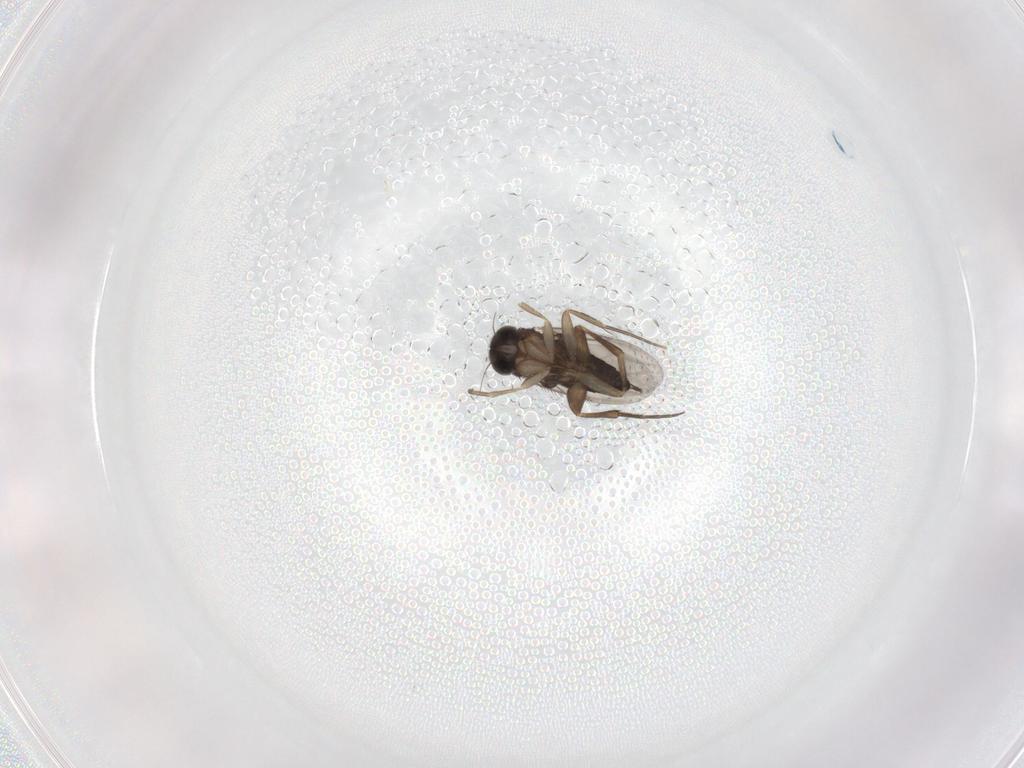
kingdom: Animalia
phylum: Arthropoda
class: Insecta
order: Diptera
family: Phoridae
